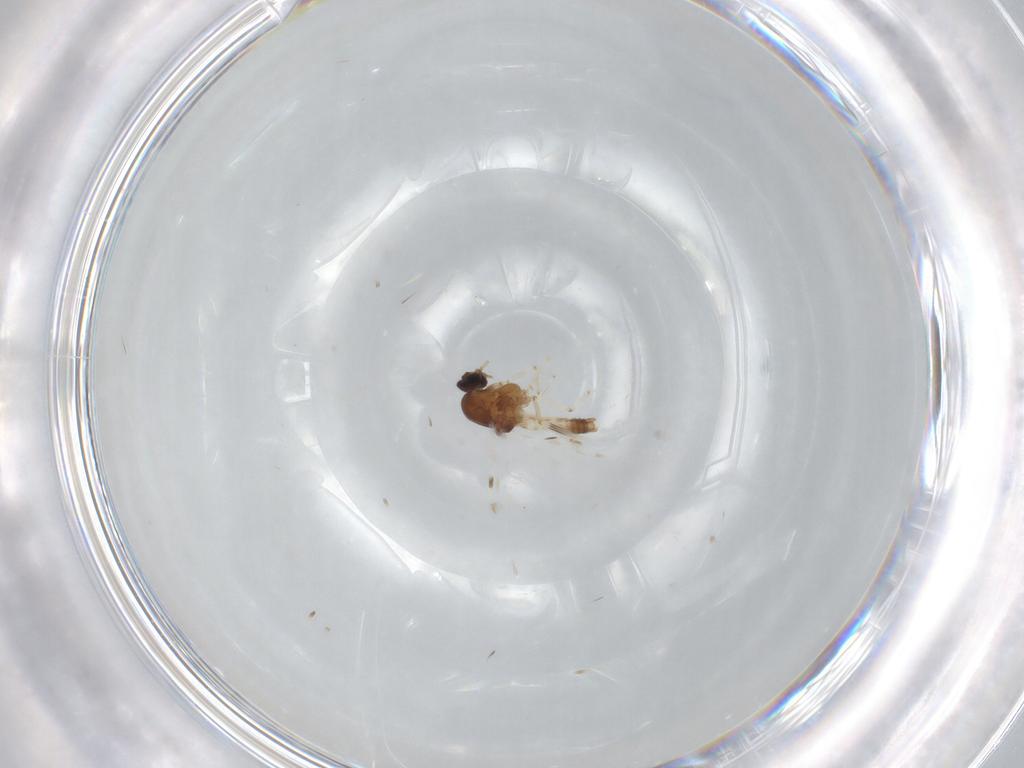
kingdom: Animalia
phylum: Arthropoda
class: Insecta
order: Diptera
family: Ceratopogonidae
